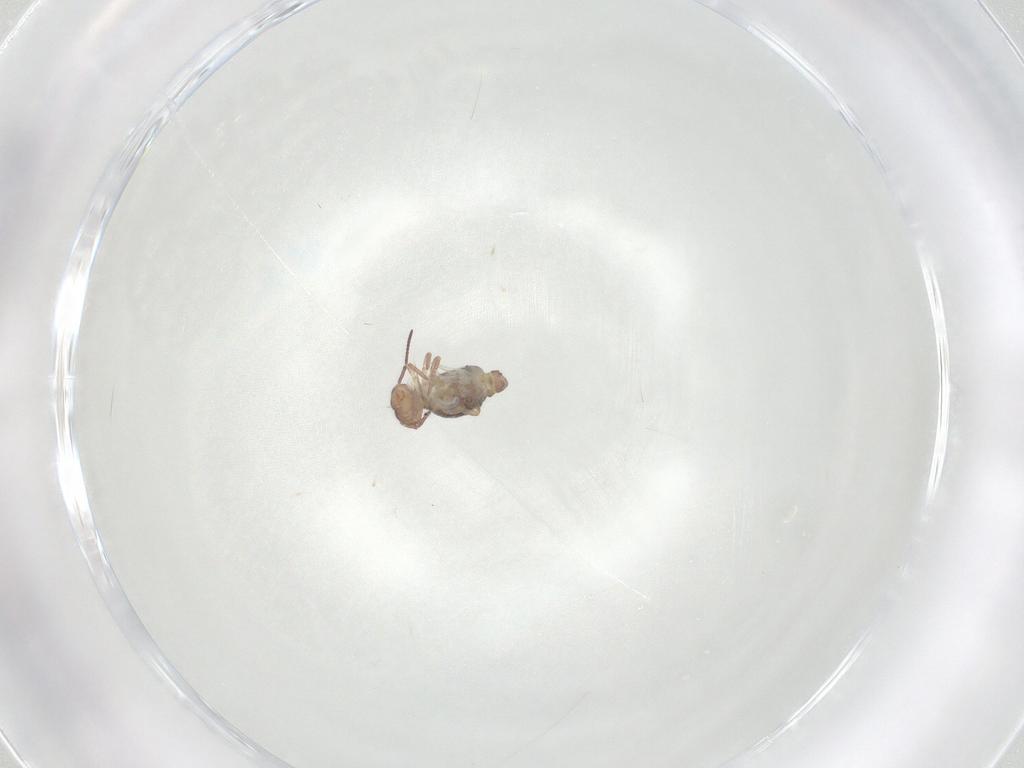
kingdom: Animalia
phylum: Arthropoda
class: Collembola
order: Symphypleona
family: Bourletiellidae
